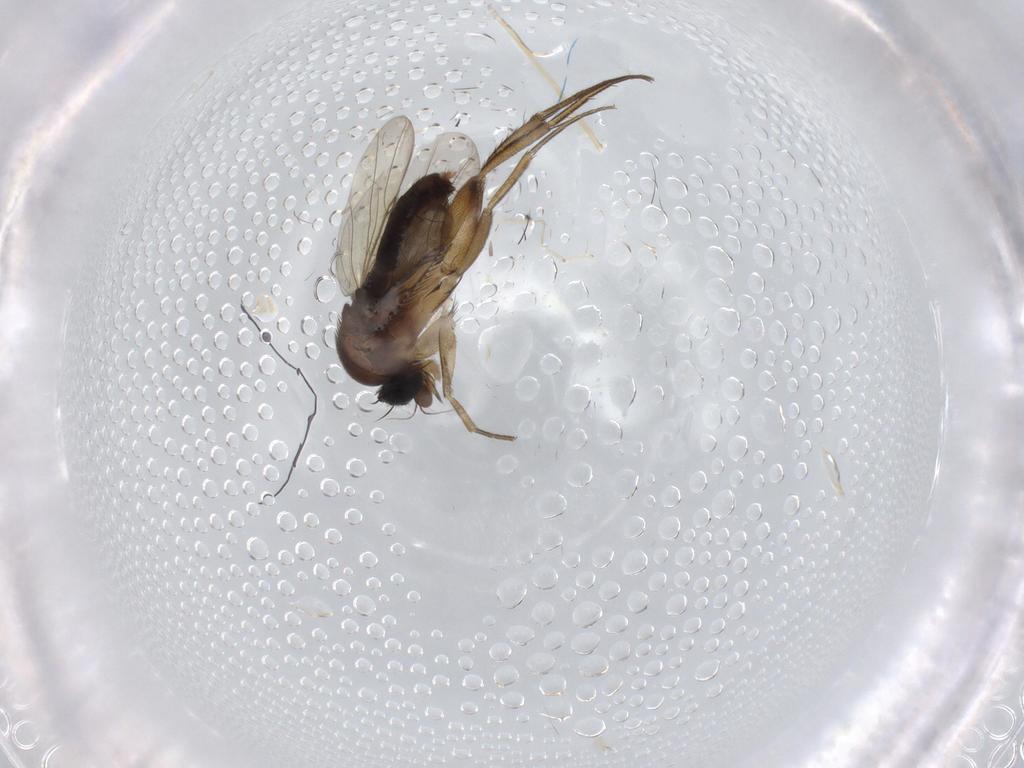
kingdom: Animalia
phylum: Arthropoda
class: Insecta
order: Diptera
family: Phoridae
